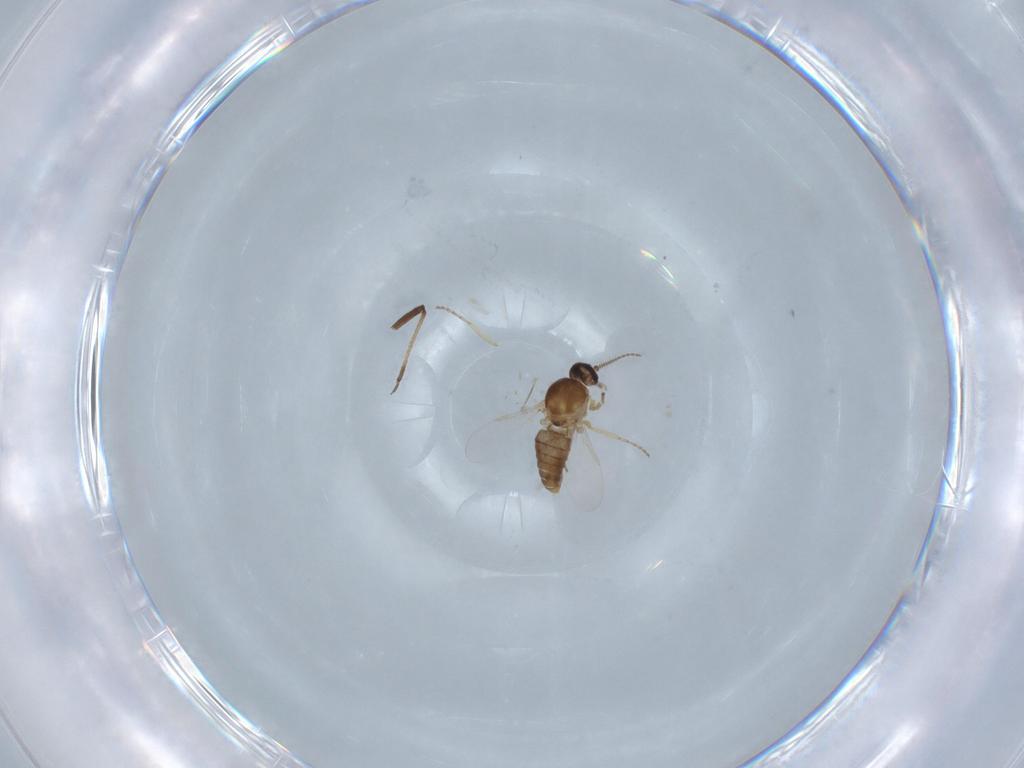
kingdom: Animalia
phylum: Arthropoda
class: Insecta
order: Diptera
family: Ceratopogonidae
